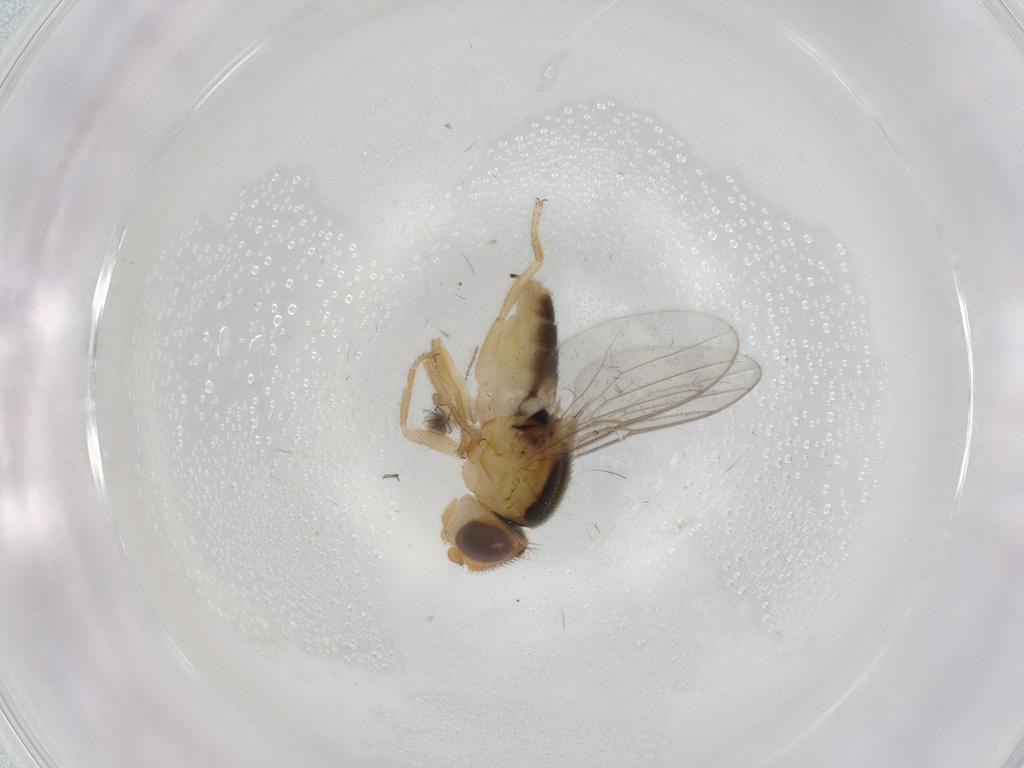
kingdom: Animalia
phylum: Arthropoda
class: Insecta
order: Diptera
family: Chloropidae
